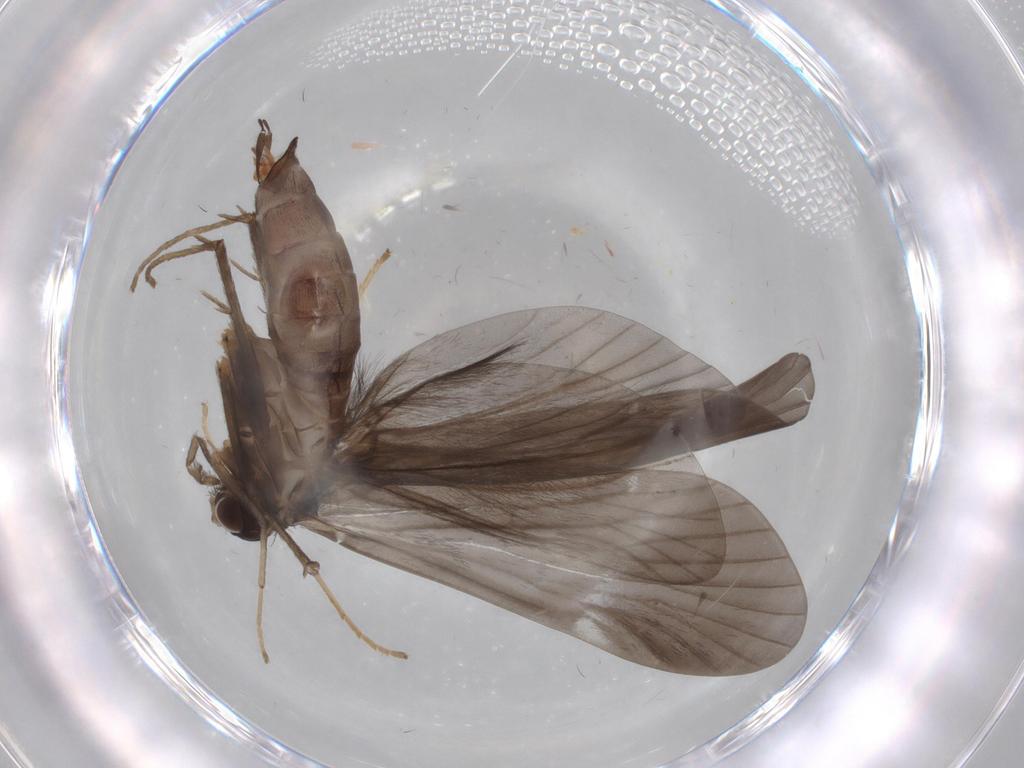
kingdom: Animalia
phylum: Arthropoda
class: Insecta
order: Trichoptera
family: Hydropsychidae
